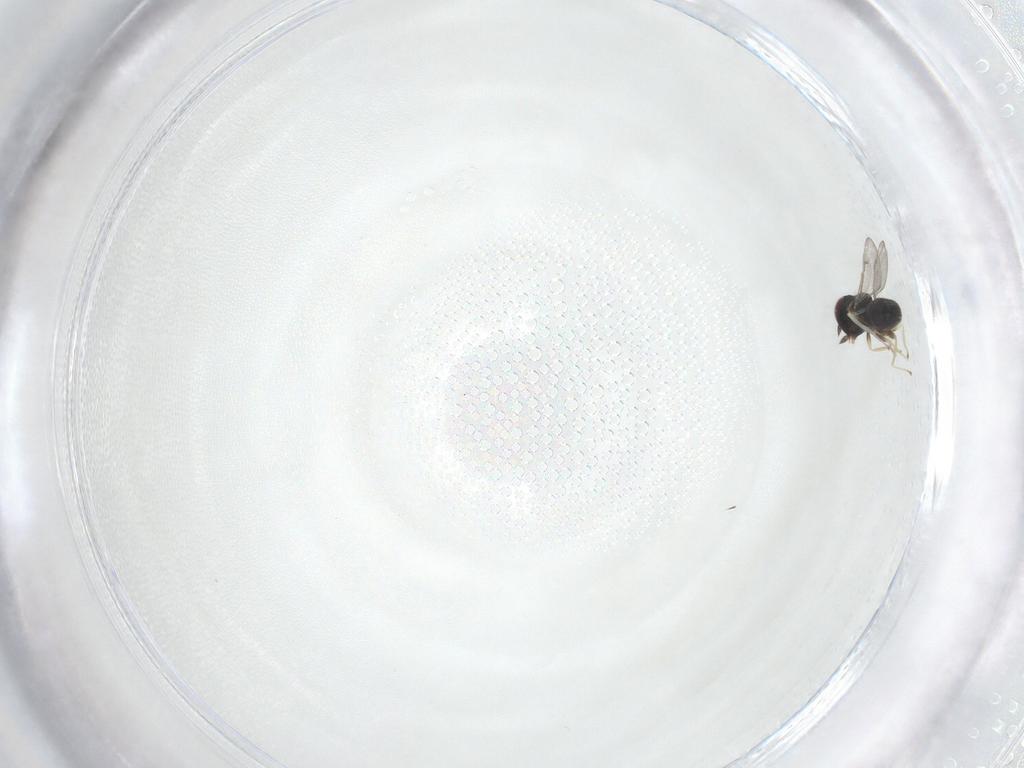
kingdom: Animalia
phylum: Arthropoda
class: Insecta
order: Hymenoptera
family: Eulophidae
